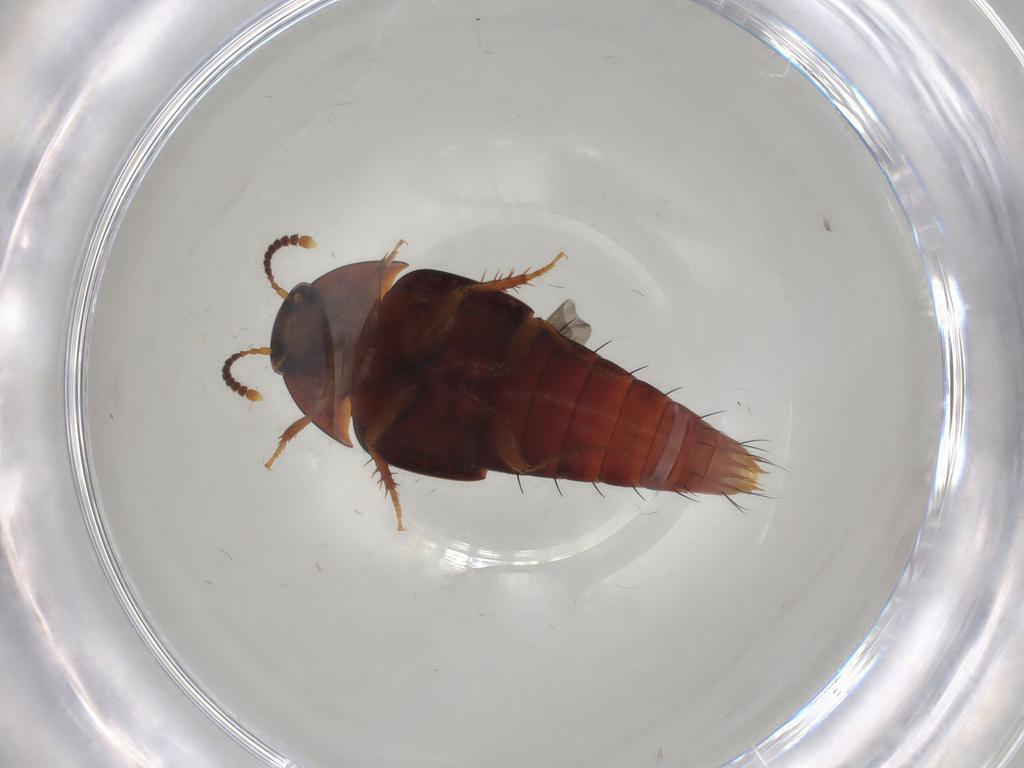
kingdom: Animalia
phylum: Arthropoda
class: Insecta
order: Coleoptera
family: Staphylinidae
